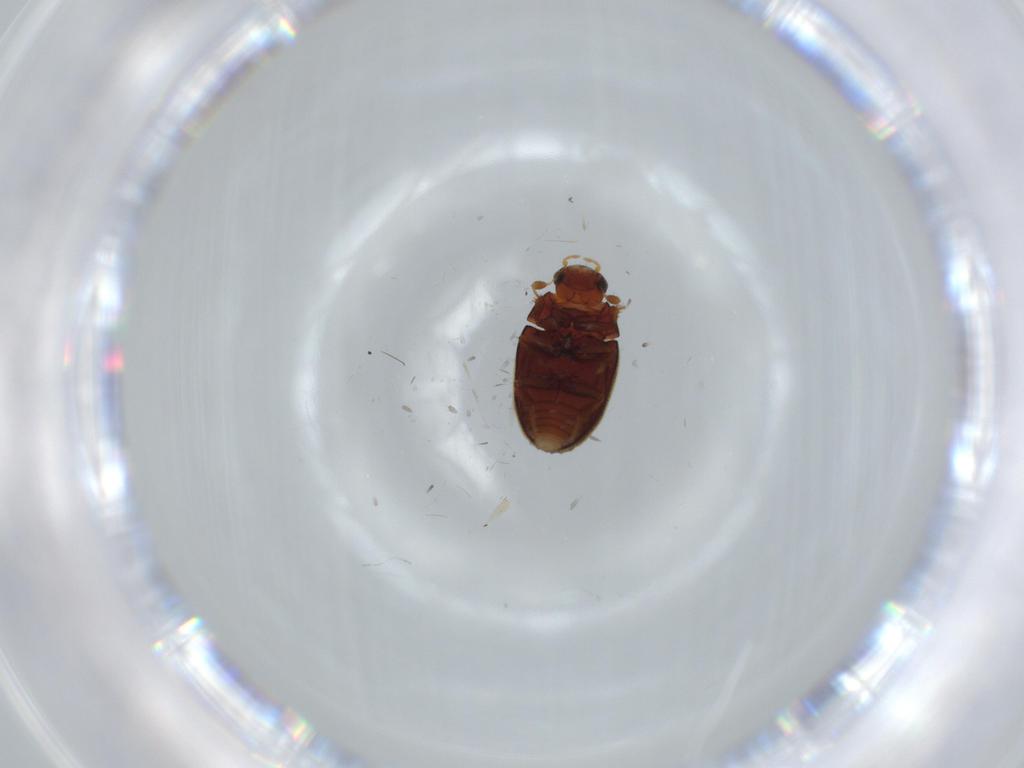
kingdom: Animalia
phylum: Arthropoda
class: Insecta
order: Coleoptera
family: Hydrophilidae
